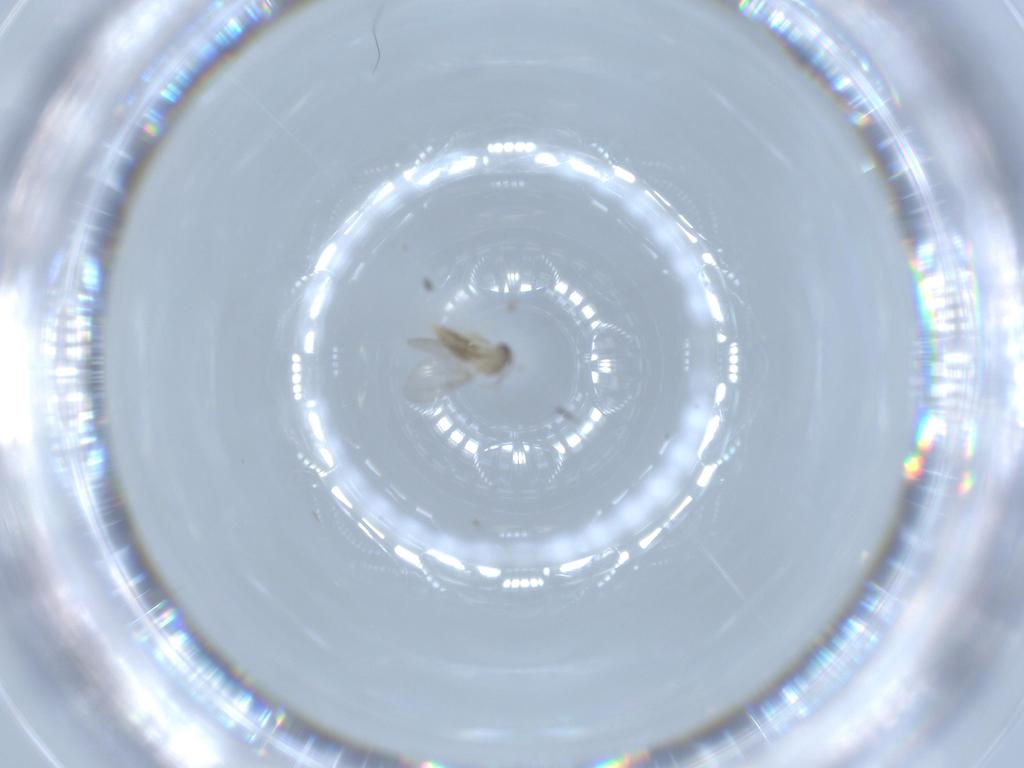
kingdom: Animalia
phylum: Arthropoda
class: Insecta
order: Diptera
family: Cecidomyiidae
